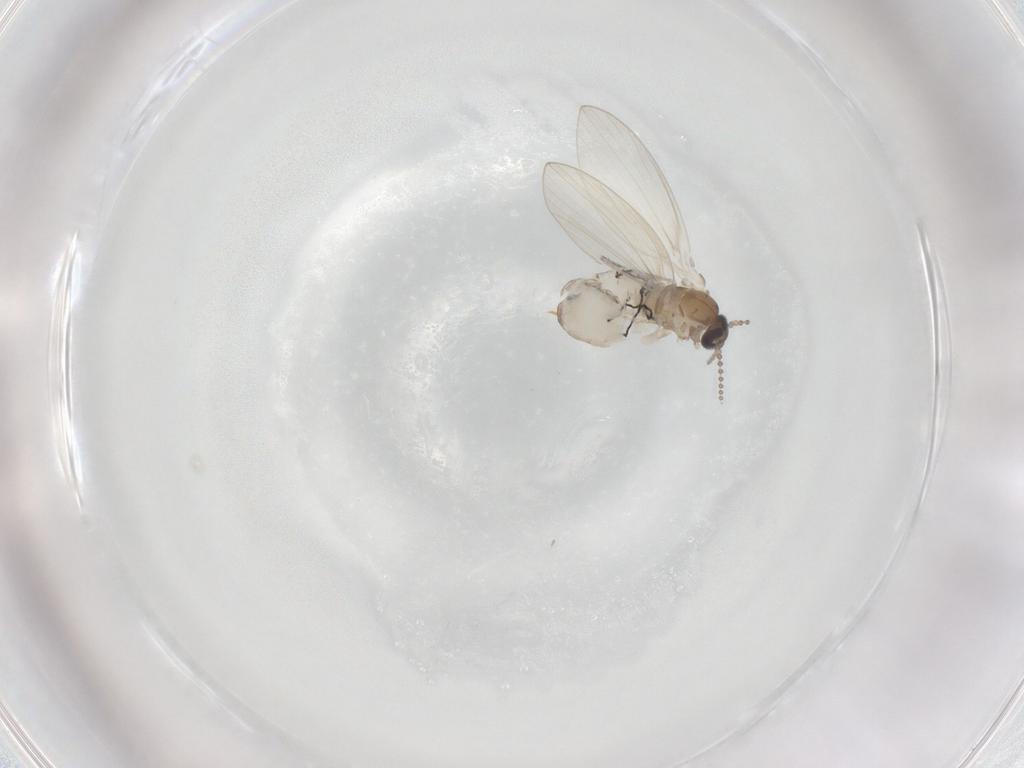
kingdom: Animalia
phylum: Arthropoda
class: Insecta
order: Diptera
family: Psychodidae
